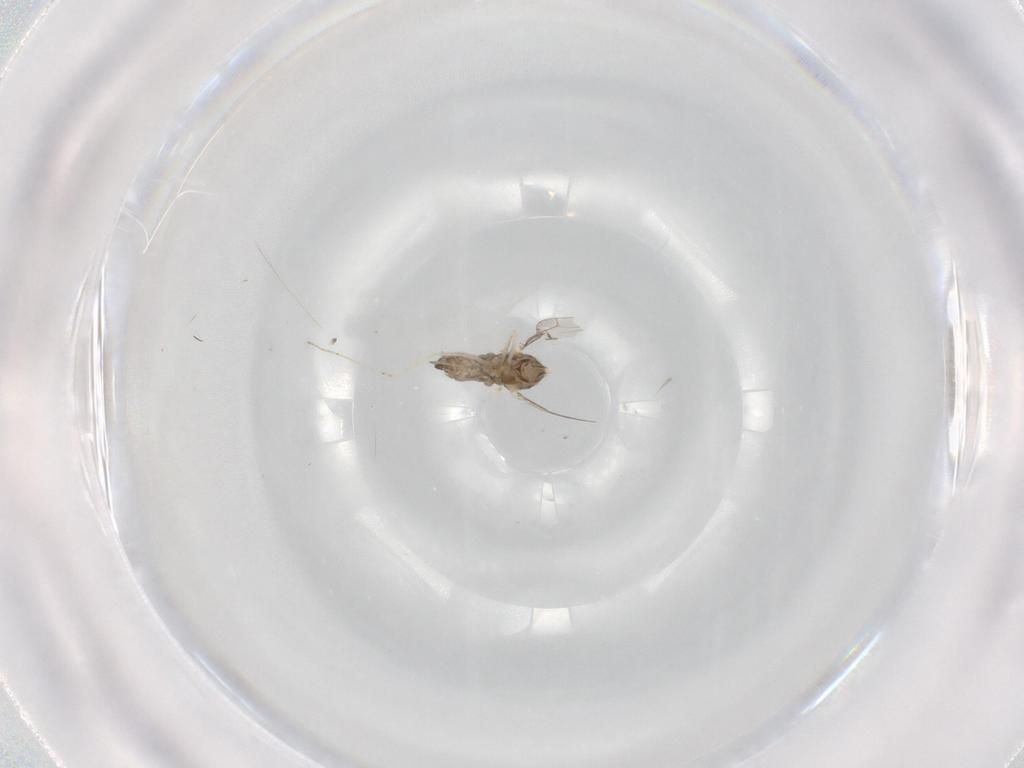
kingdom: Animalia
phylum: Arthropoda
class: Insecta
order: Diptera
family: Cecidomyiidae
